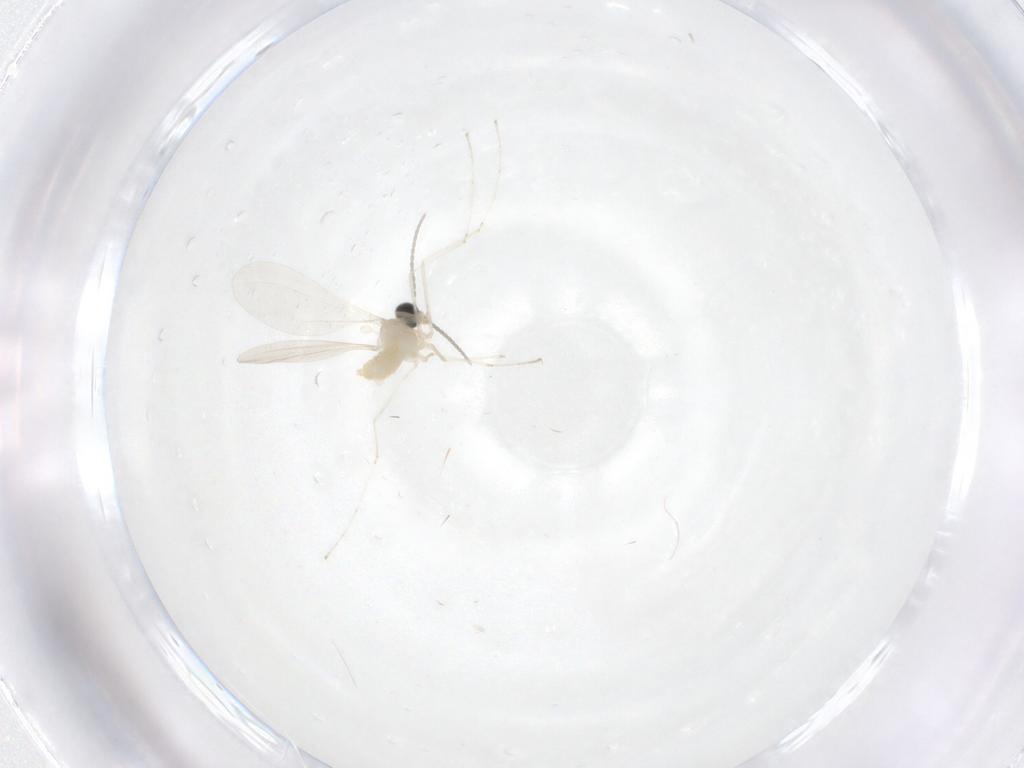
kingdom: Animalia
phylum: Arthropoda
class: Insecta
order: Diptera
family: Cecidomyiidae
